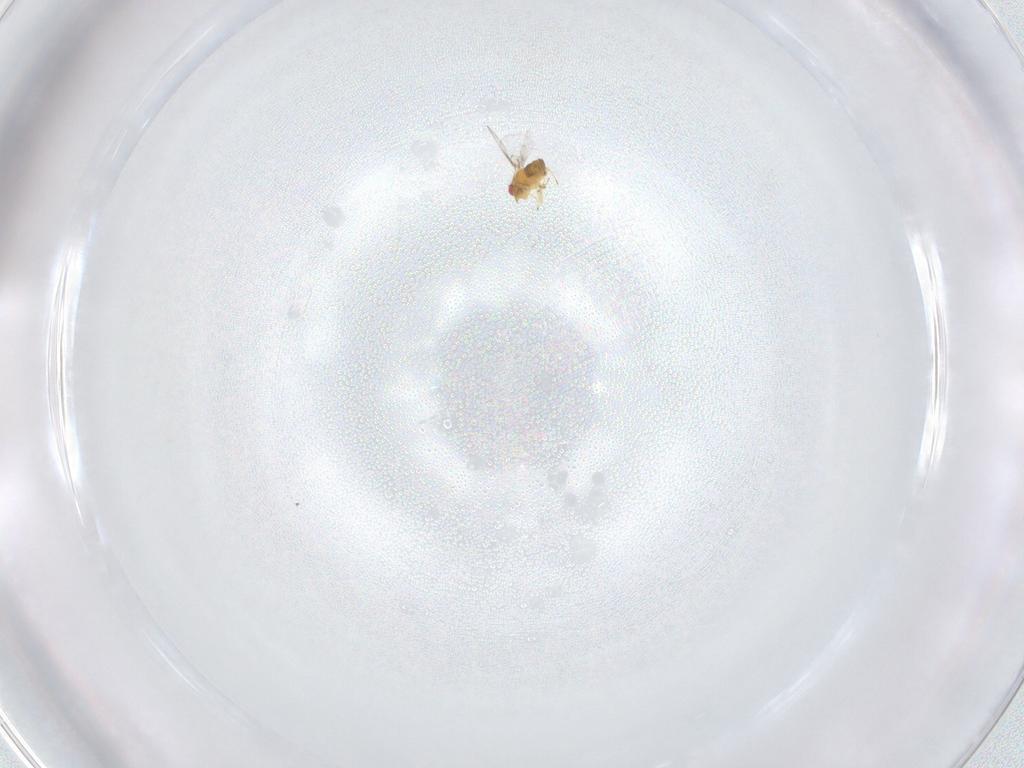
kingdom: Animalia
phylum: Arthropoda
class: Insecta
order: Hymenoptera
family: Trichogrammatidae
